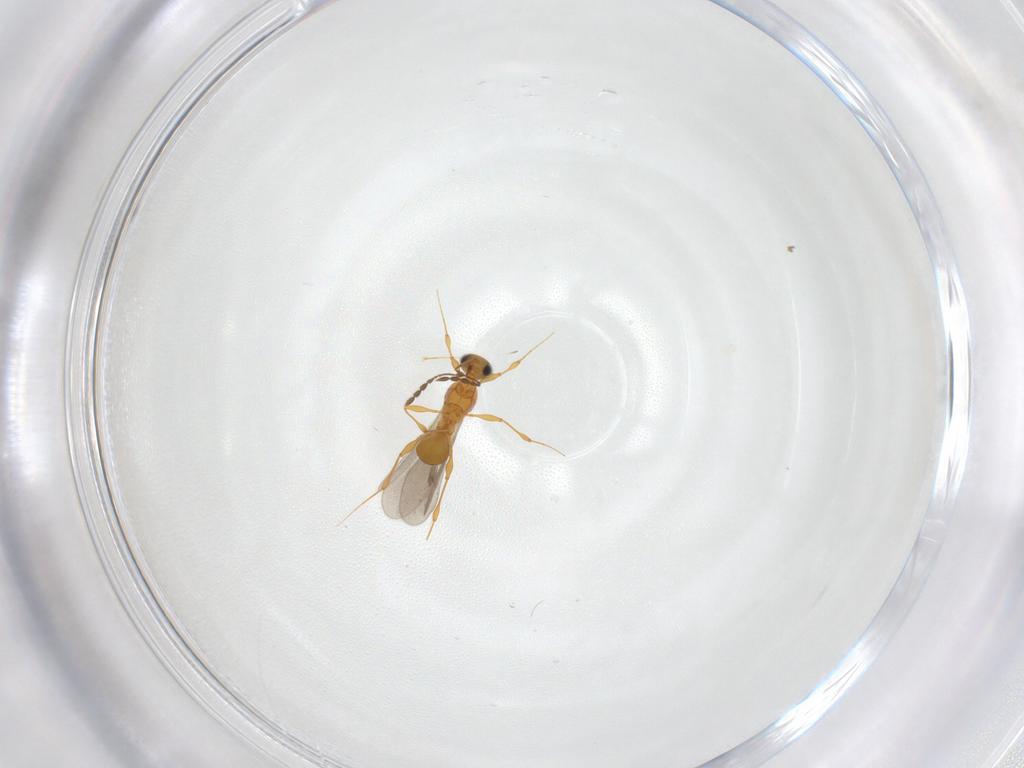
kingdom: Animalia
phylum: Arthropoda
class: Insecta
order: Hymenoptera
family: Platygastridae
